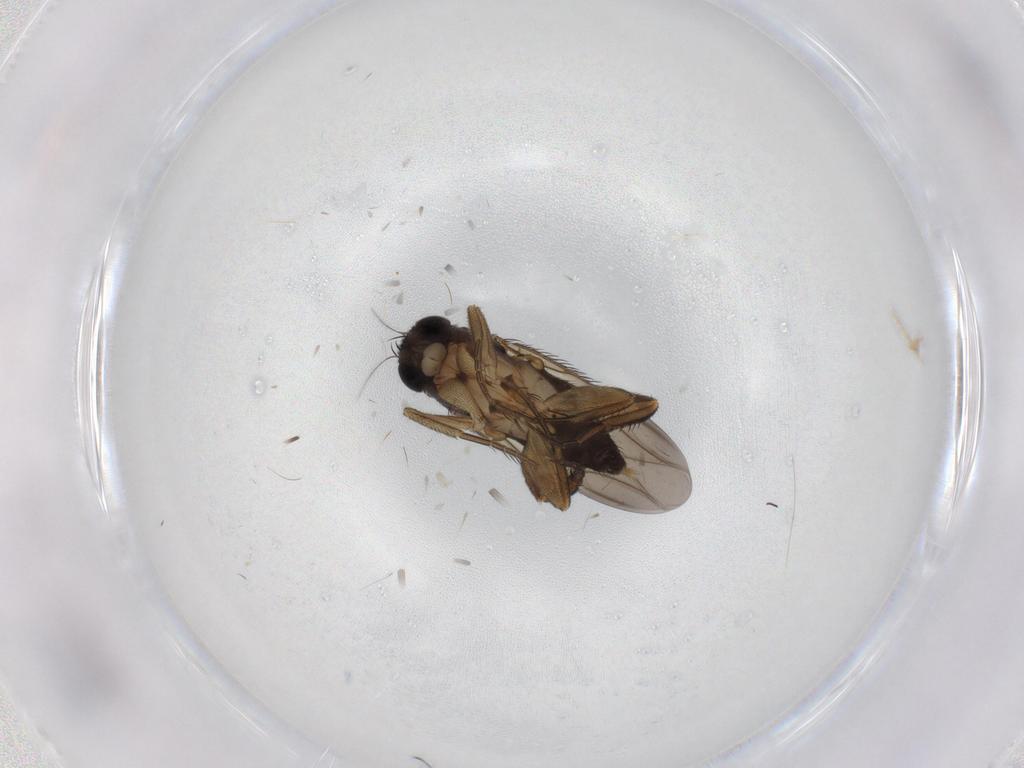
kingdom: Animalia
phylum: Arthropoda
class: Insecta
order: Diptera
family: Phoridae
